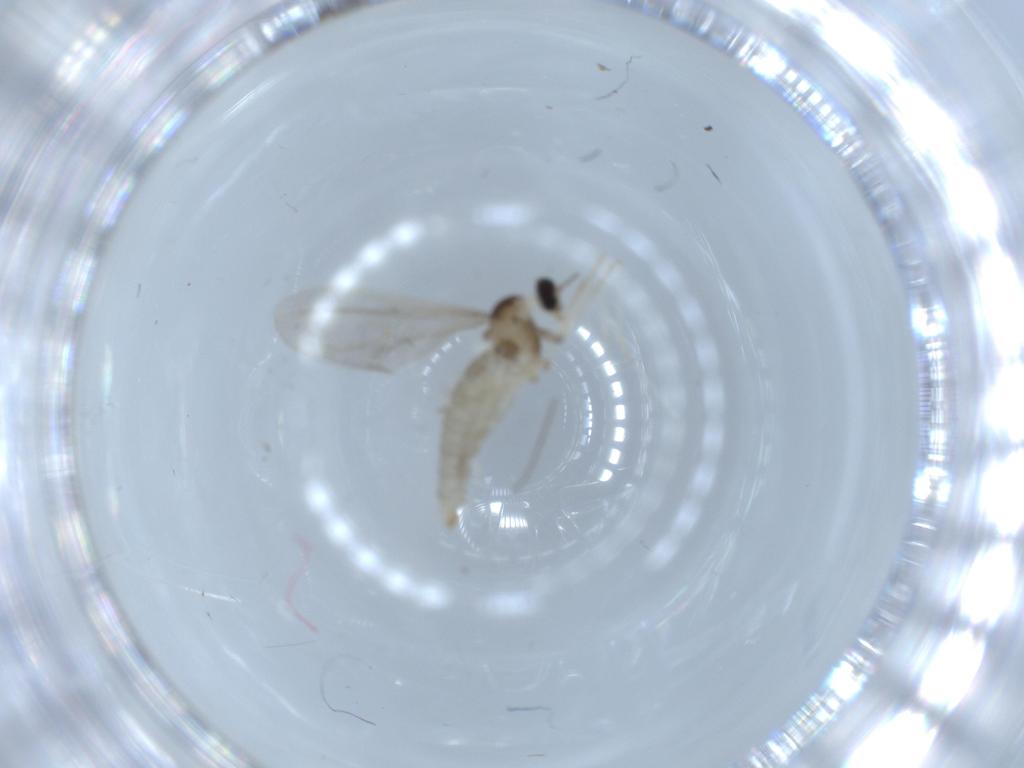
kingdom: Animalia
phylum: Arthropoda
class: Insecta
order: Diptera
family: Cecidomyiidae
